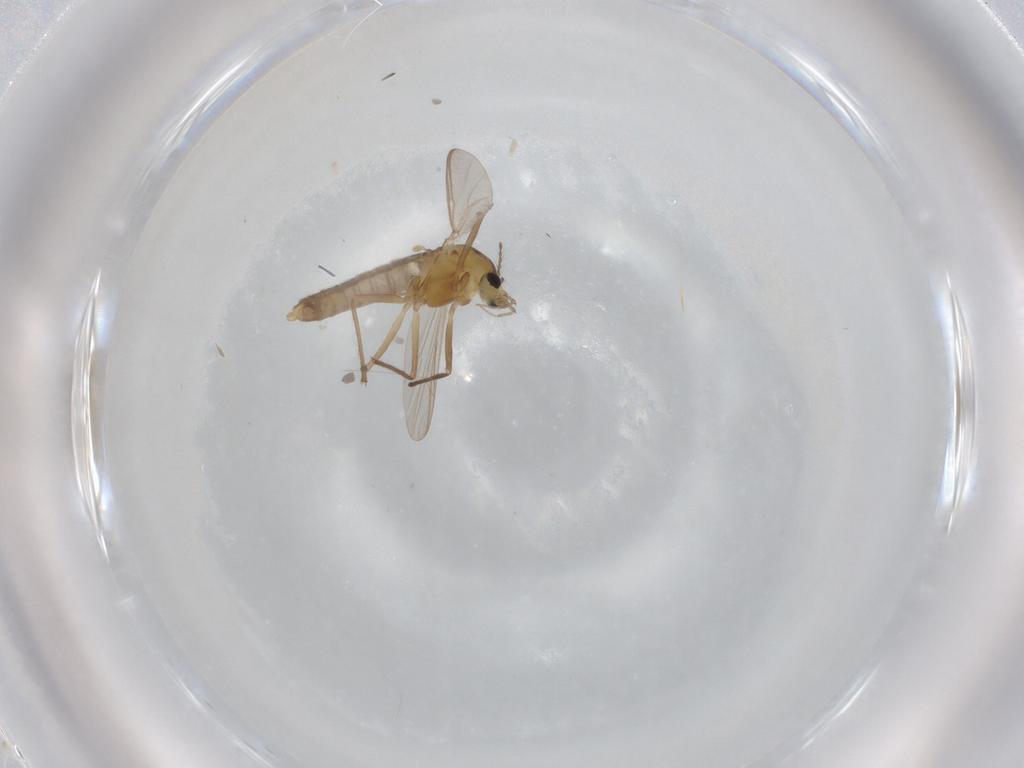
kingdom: Animalia
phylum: Arthropoda
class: Insecta
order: Diptera
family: Chironomidae
